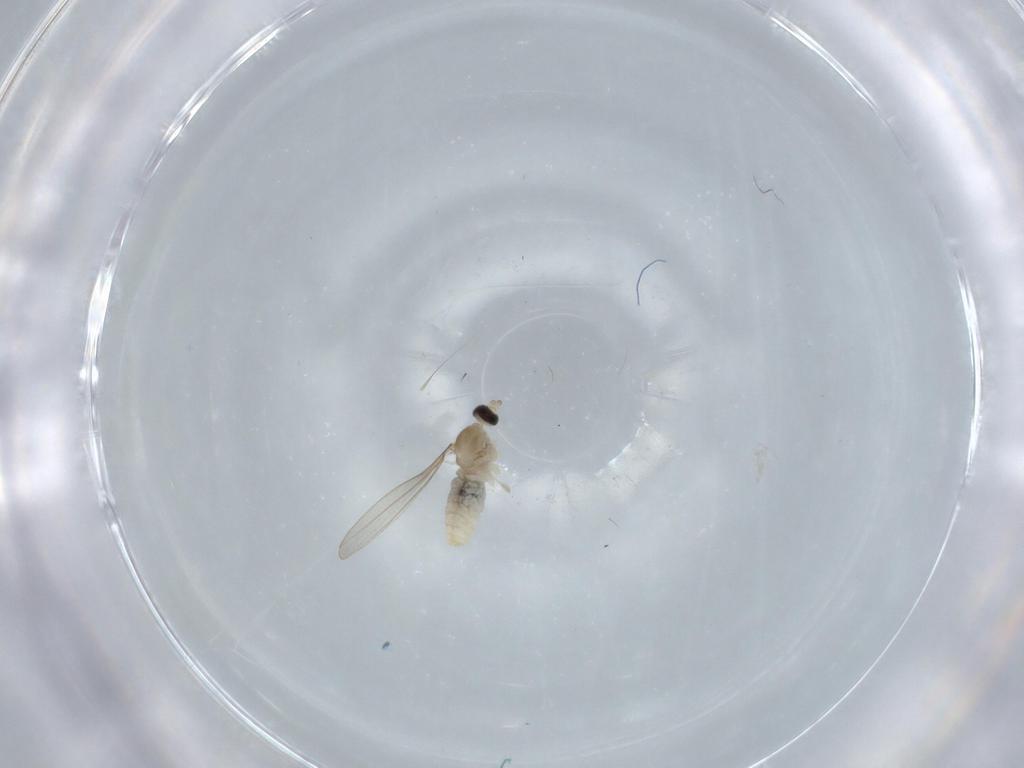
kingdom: Animalia
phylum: Arthropoda
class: Insecta
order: Diptera
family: Cecidomyiidae
